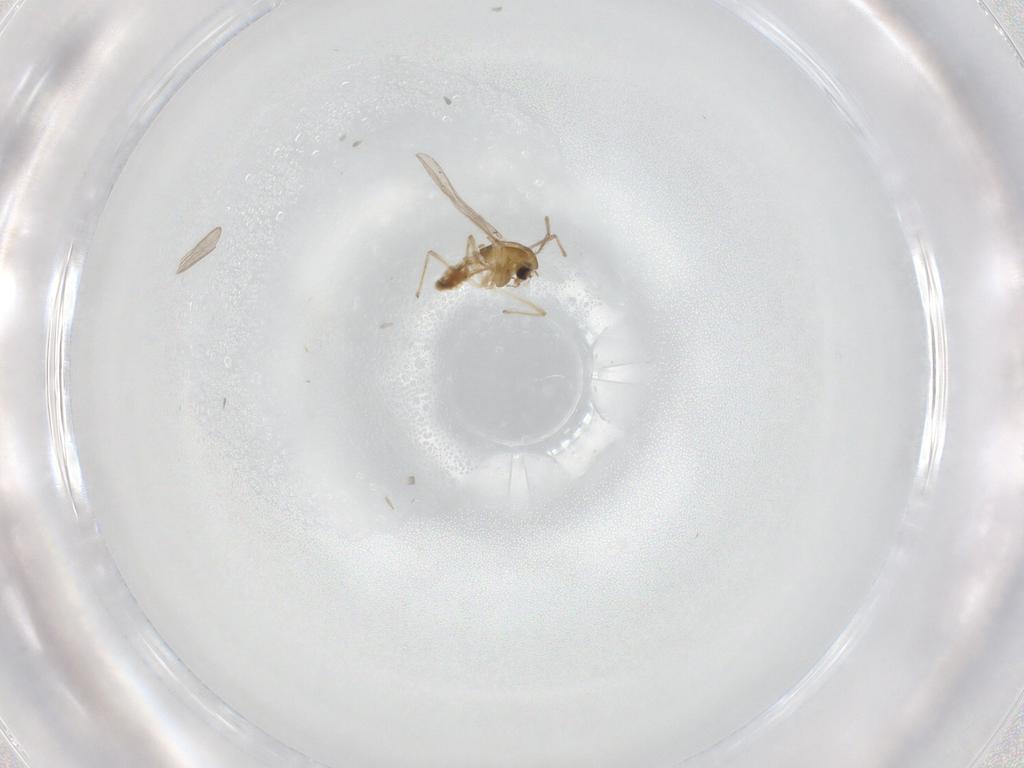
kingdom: Animalia
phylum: Arthropoda
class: Insecta
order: Diptera
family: Chironomidae
